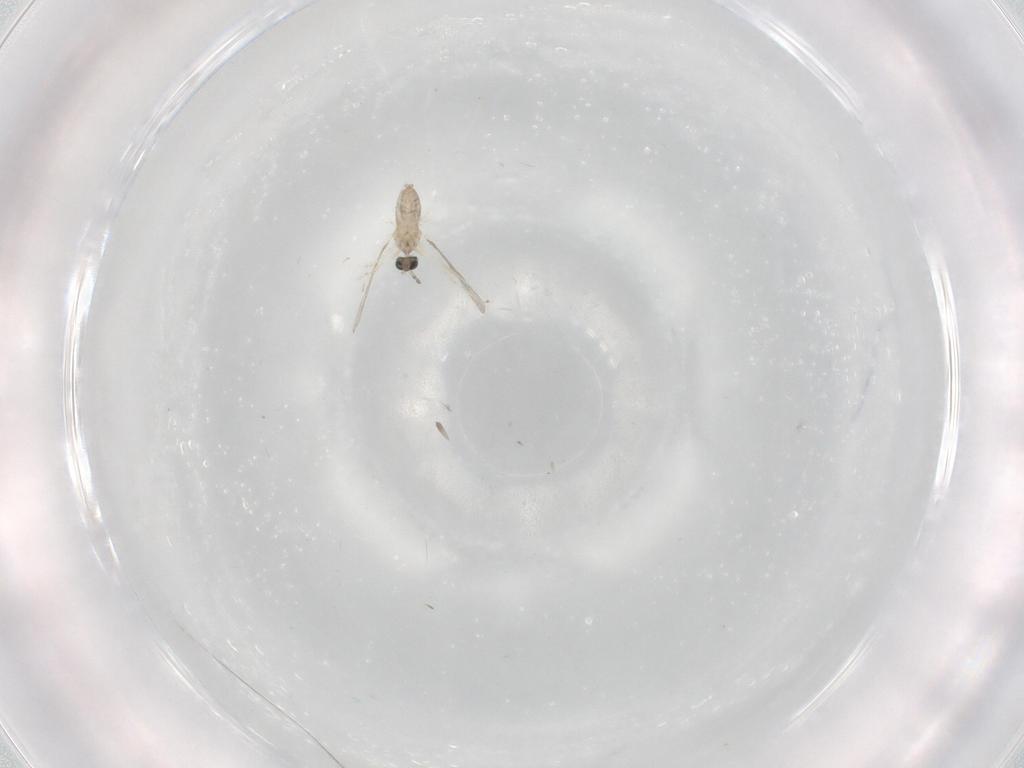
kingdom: Animalia
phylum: Arthropoda
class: Insecta
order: Diptera
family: Cecidomyiidae
